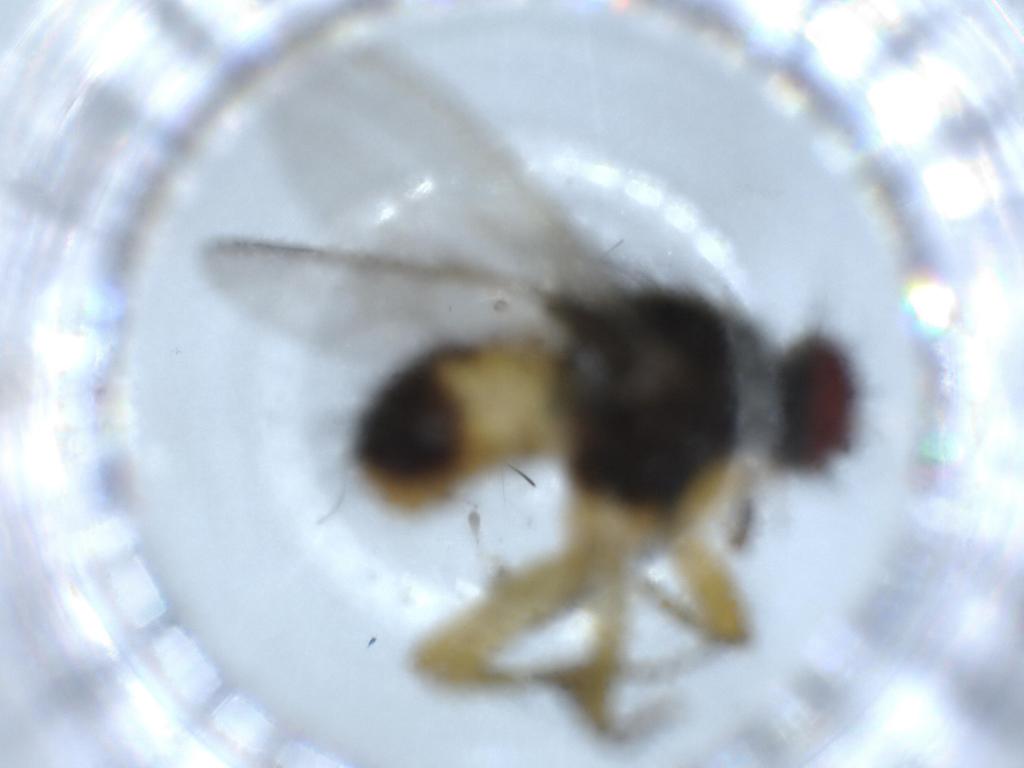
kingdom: Animalia
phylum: Arthropoda
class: Insecta
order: Diptera
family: Muscidae
